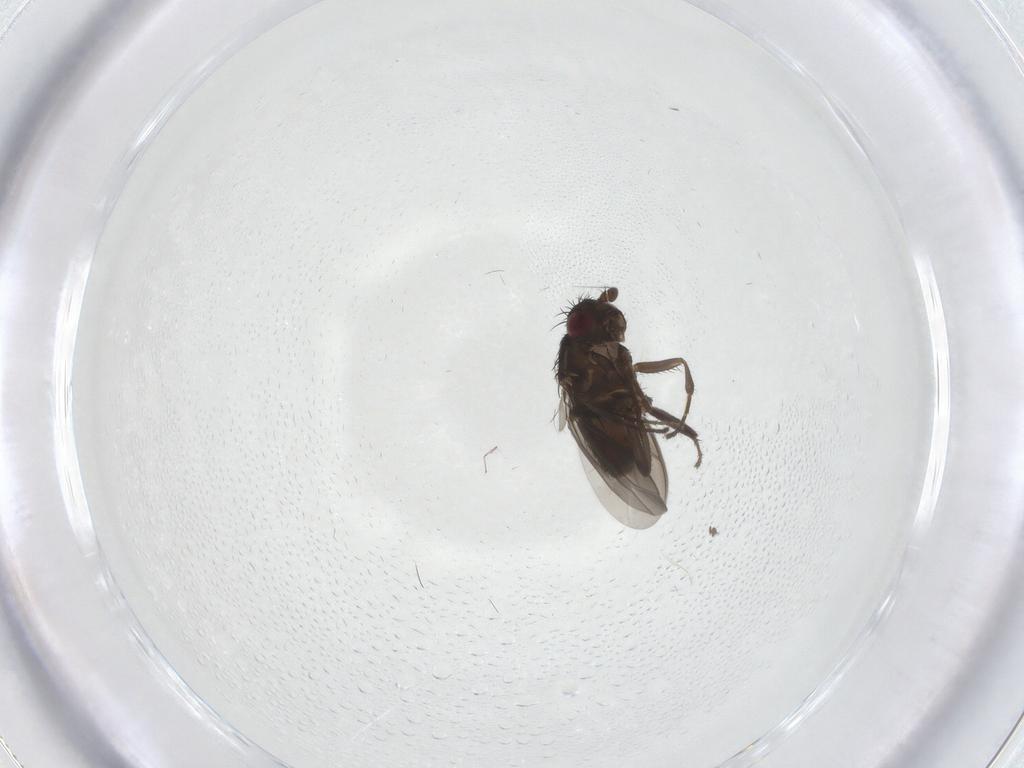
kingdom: Animalia
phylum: Arthropoda
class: Insecta
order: Diptera
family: Sphaeroceridae
